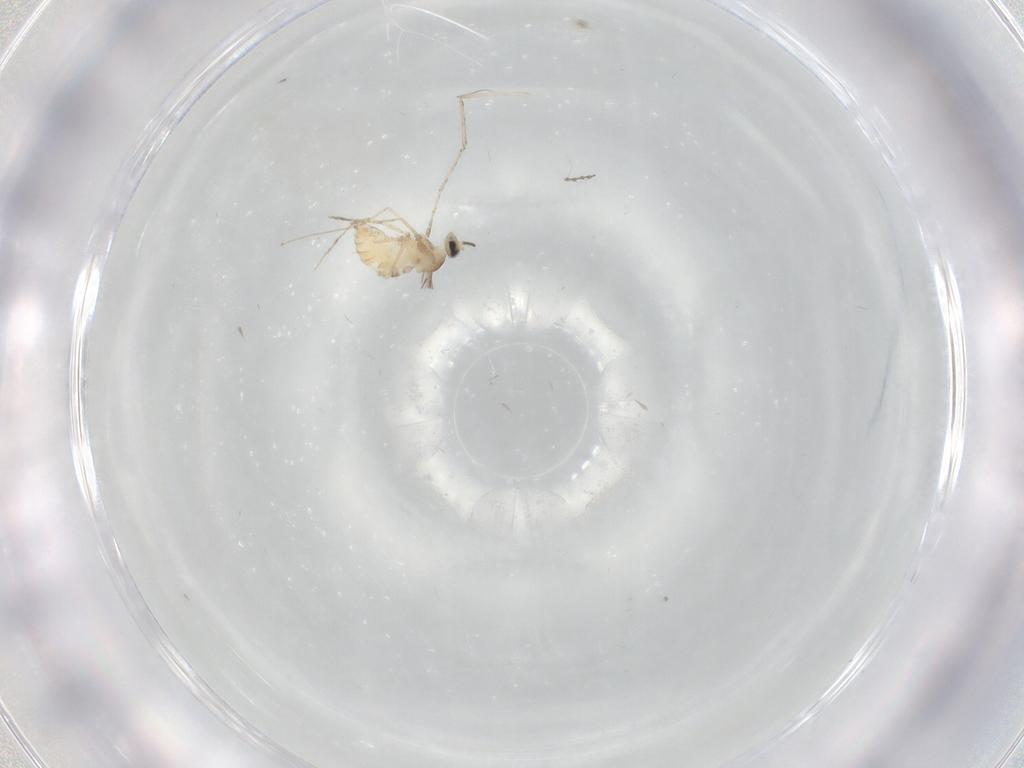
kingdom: Animalia
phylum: Arthropoda
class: Insecta
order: Diptera
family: Cecidomyiidae
